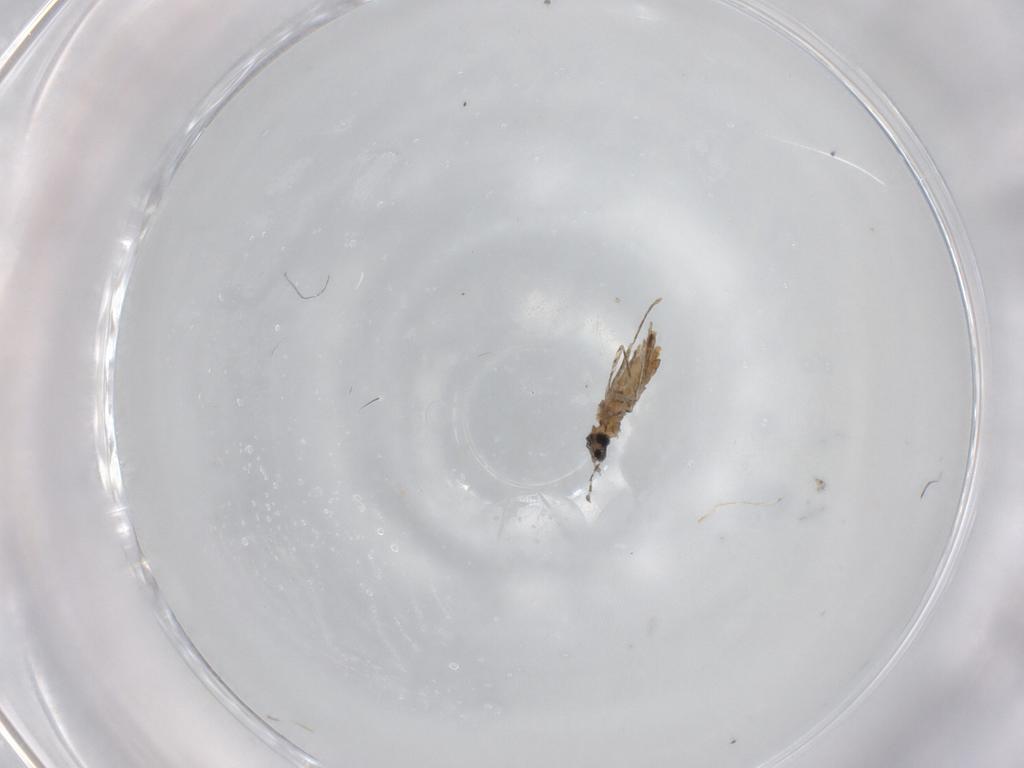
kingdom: Animalia
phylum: Arthropoda
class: Insecta
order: Diptera
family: Cecidomyiidae
